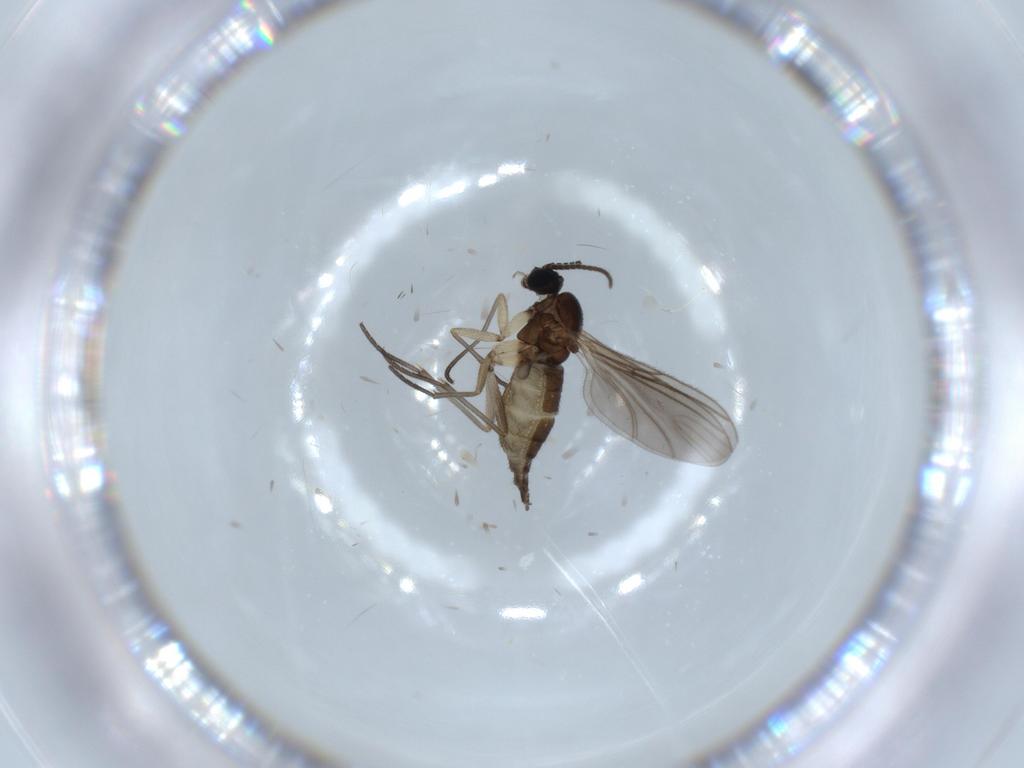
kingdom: Animalia
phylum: Arthropoda
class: Insecta
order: Diptera
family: Sciaridae
